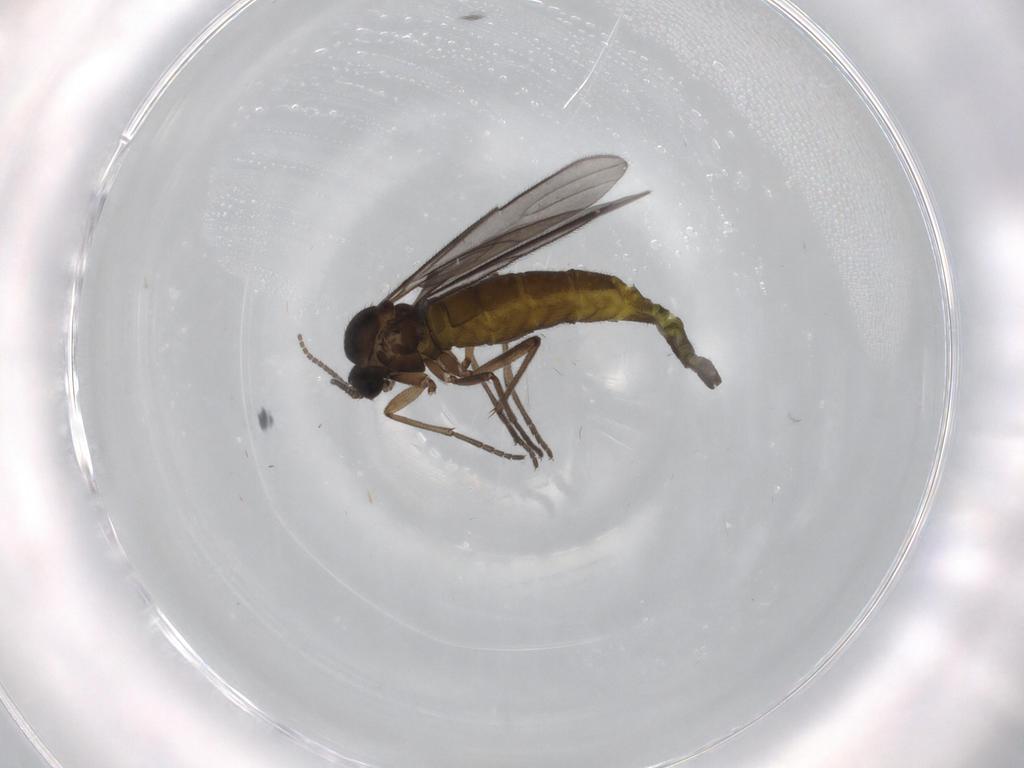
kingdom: Animalia
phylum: Arthropoda
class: Insecta
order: Diptera
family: Sciaridae
